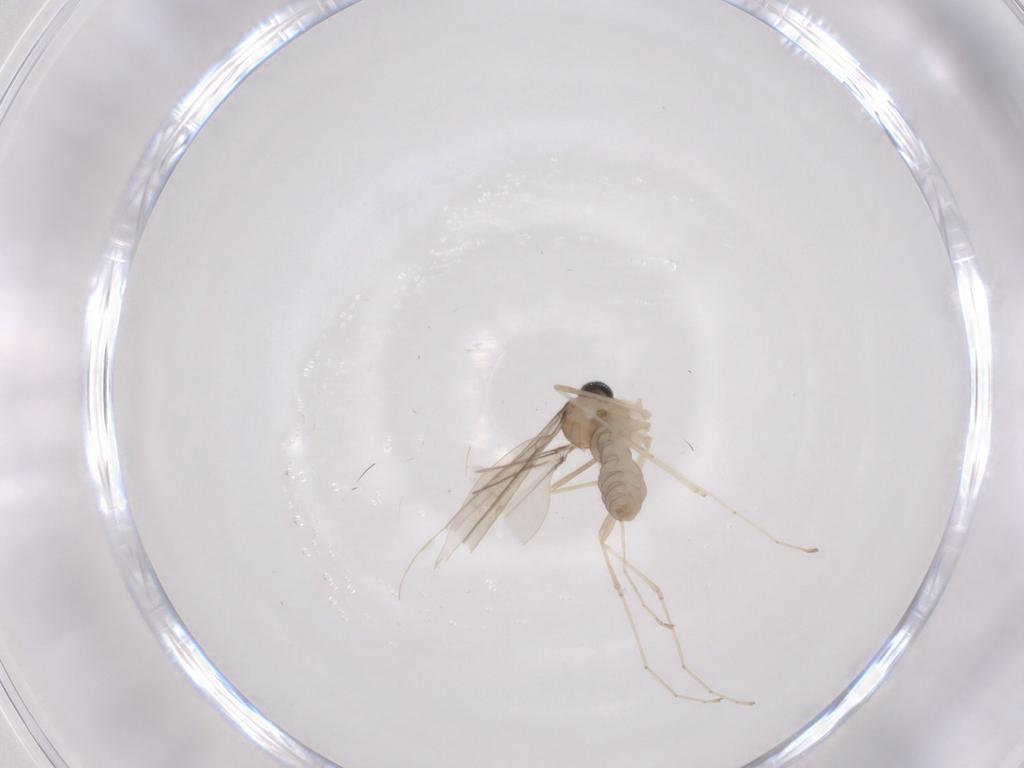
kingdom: Animalia
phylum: Arthropoda
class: Insecta
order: Diptera
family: Cecidomyiidae
